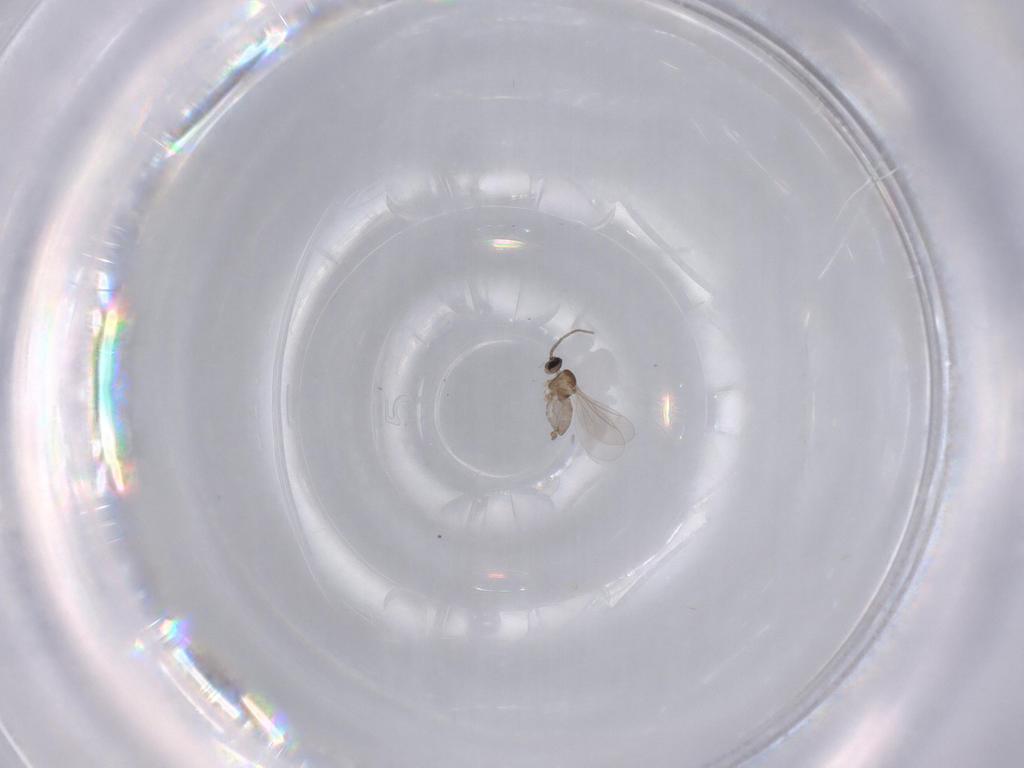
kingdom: Animalia
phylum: Arthropoda
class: Insecta
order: Diptera
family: Cecidomyiidae
